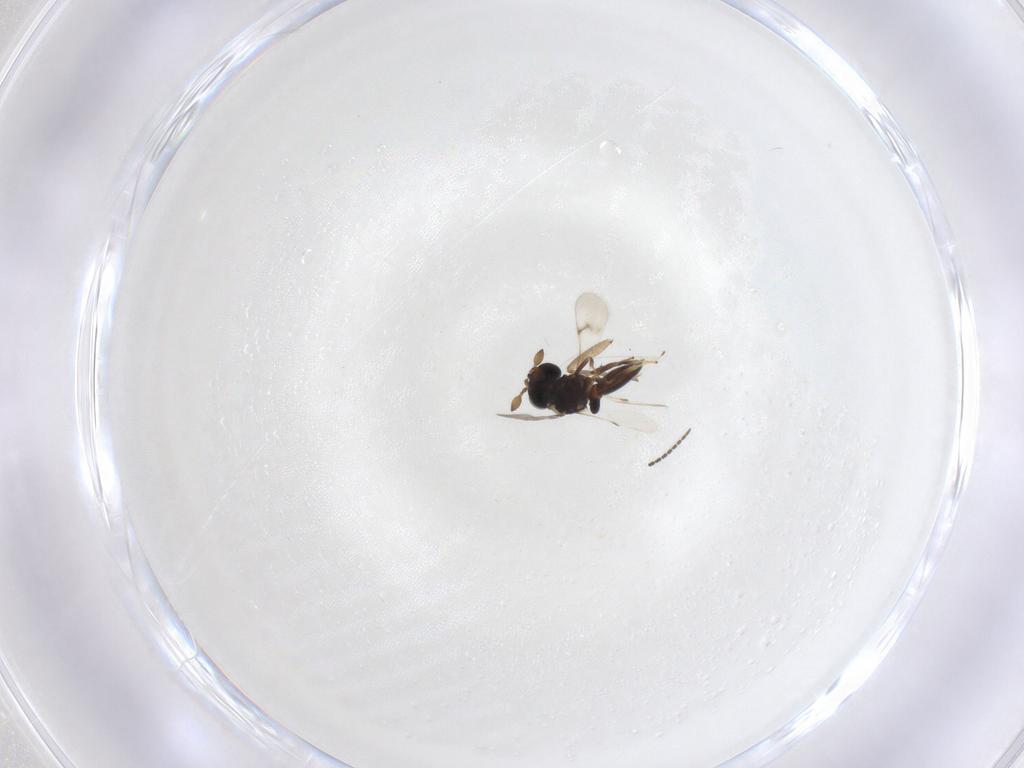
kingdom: Animalia
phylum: Arthropoda
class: Insecta
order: Hymenoptera
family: Scelionidae
